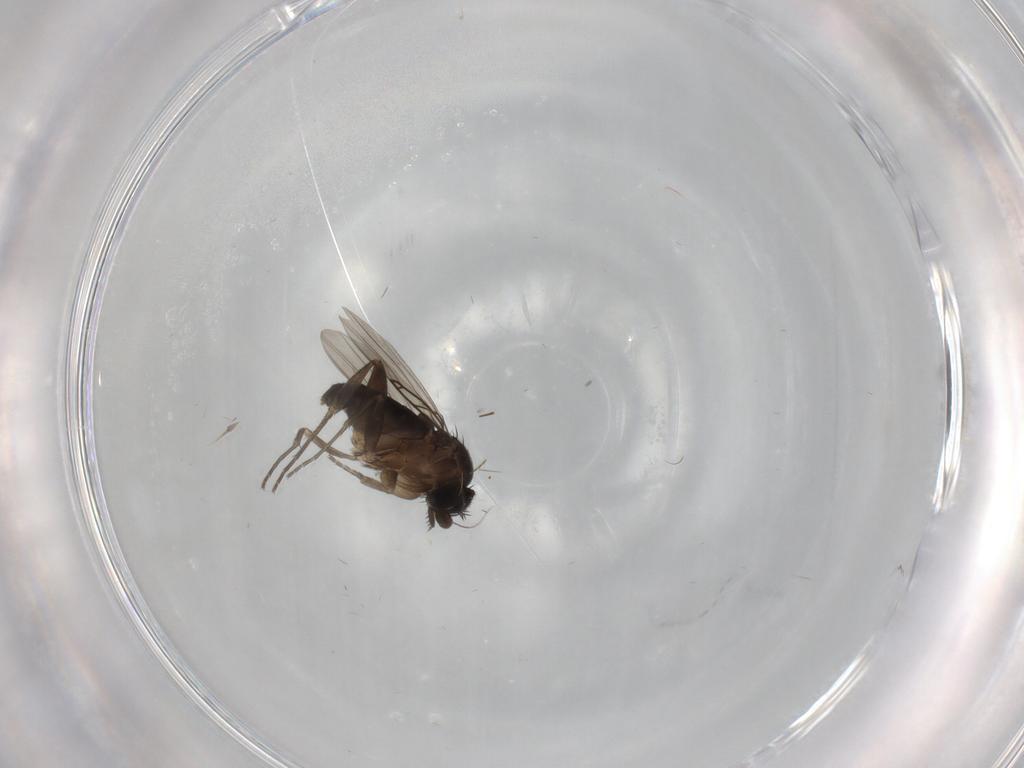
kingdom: Animalia
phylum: Arthropoda
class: Insecta
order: Diptera
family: Phoridae
